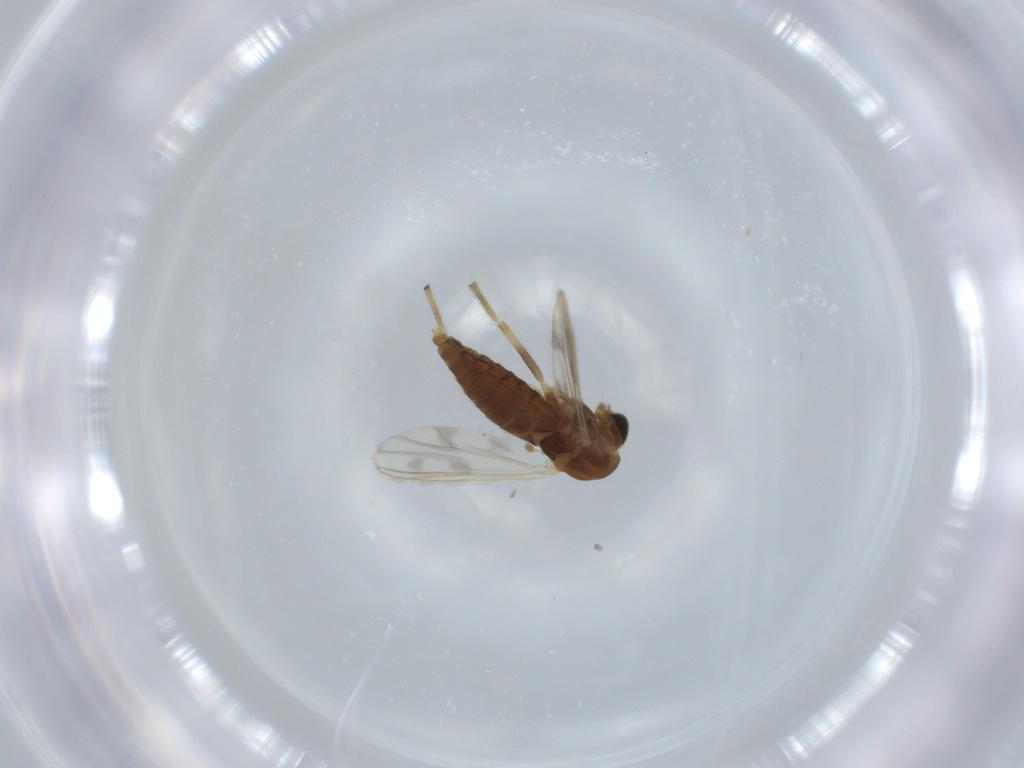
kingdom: Animalia
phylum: Arthropoda
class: Insecta
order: Diptera
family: Chironomidae
